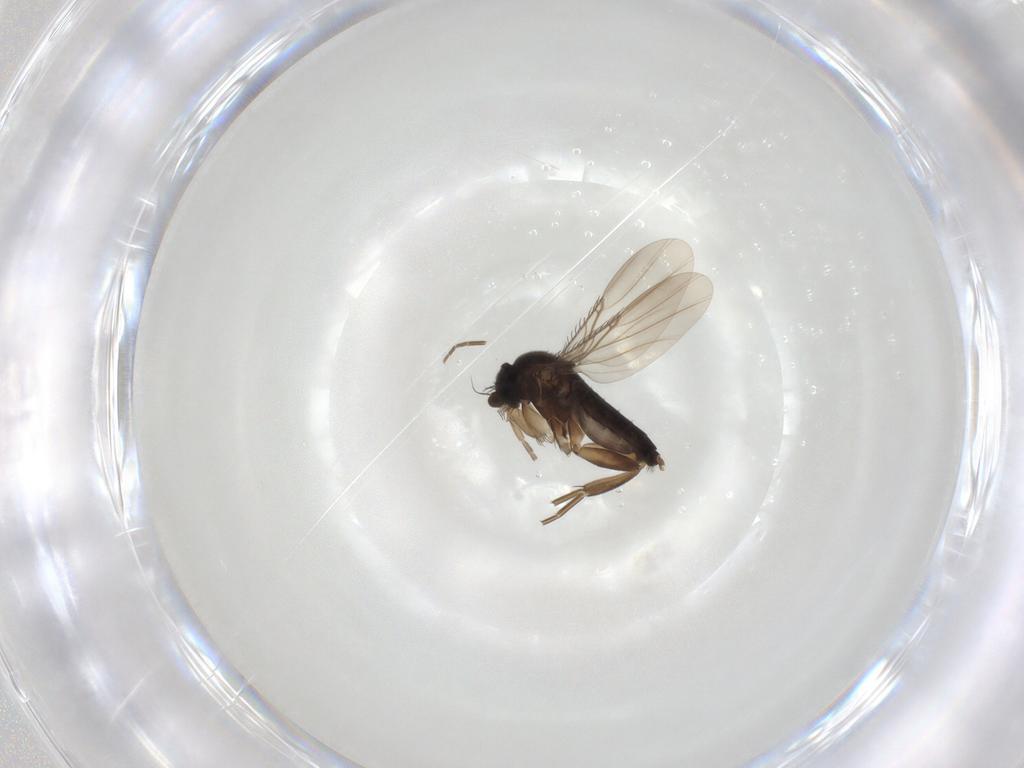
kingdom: Animalia
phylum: Arthropoda
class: Insecta
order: Diptera
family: Phoridae
